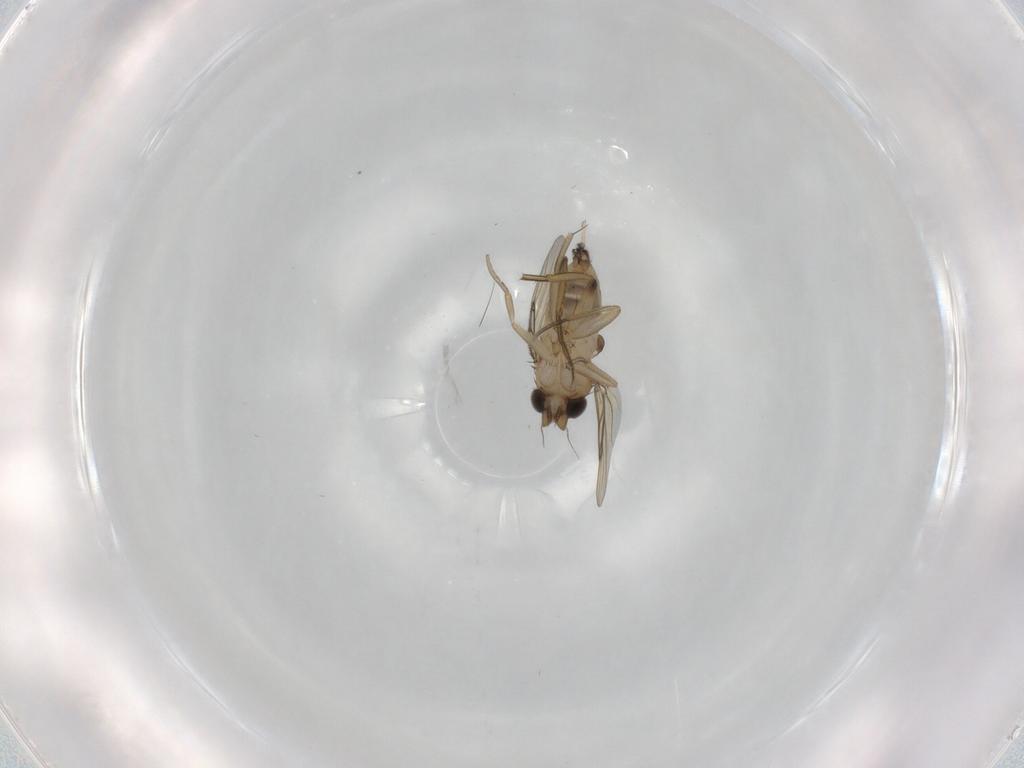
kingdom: Animalia
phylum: Arthropoda
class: Insecta
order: Diptera
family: Phoridae
